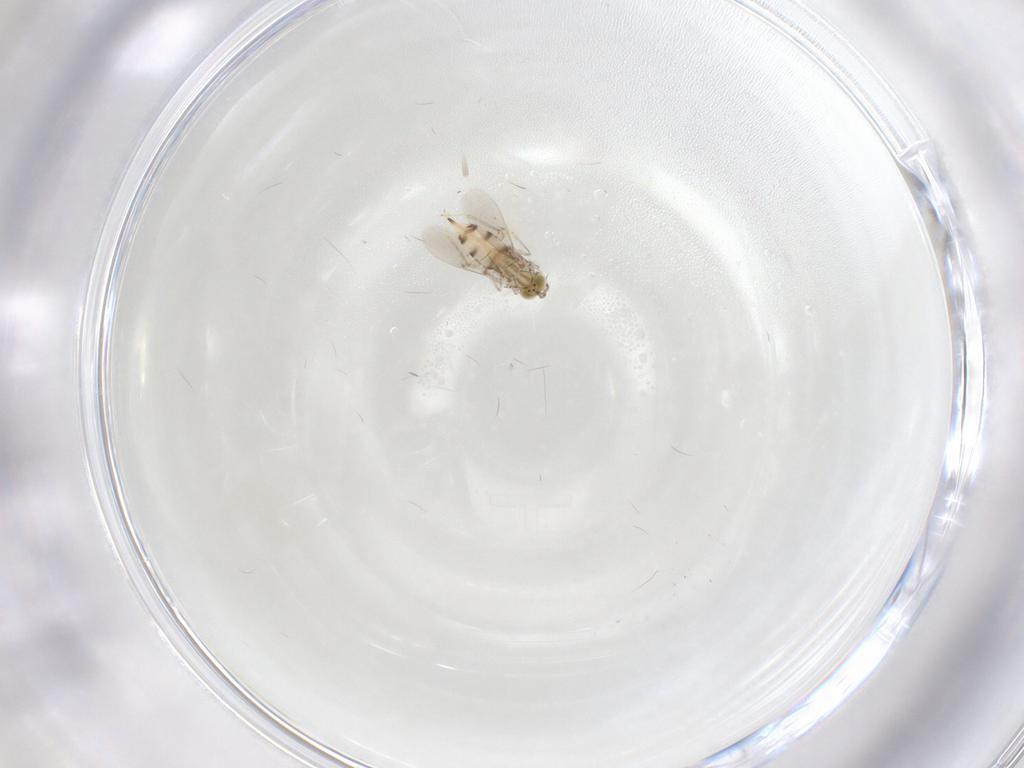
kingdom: Animalia
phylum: Arthropoda
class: Insecta
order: Hymenoptera
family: Aphelinidae
